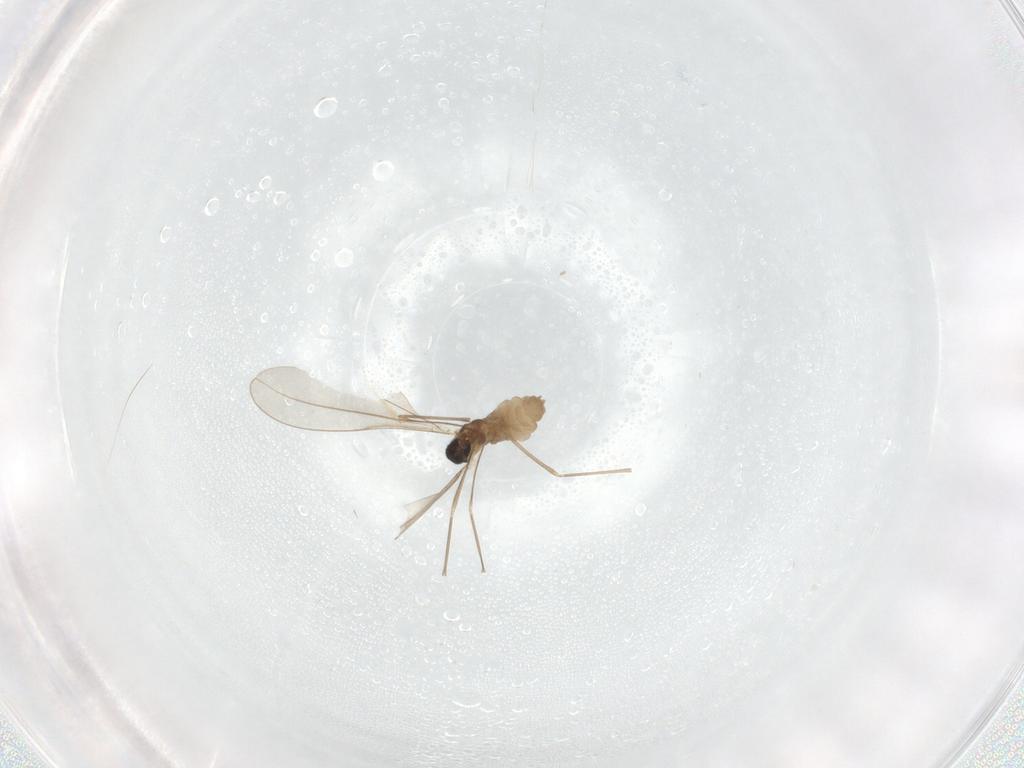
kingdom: Animalia
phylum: Arthropoda
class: Insecta
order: Diptera
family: Cecidomyiidae
